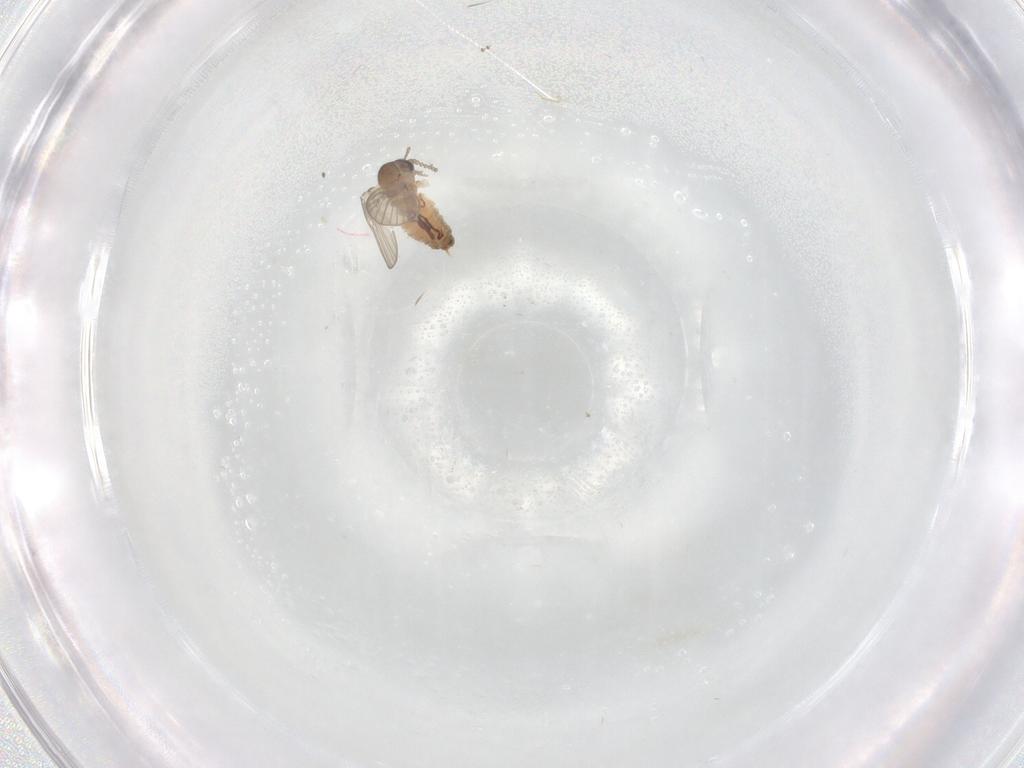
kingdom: Animalia
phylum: Arthropoda
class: Insecta
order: Diptera
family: Cecidomyiidae
